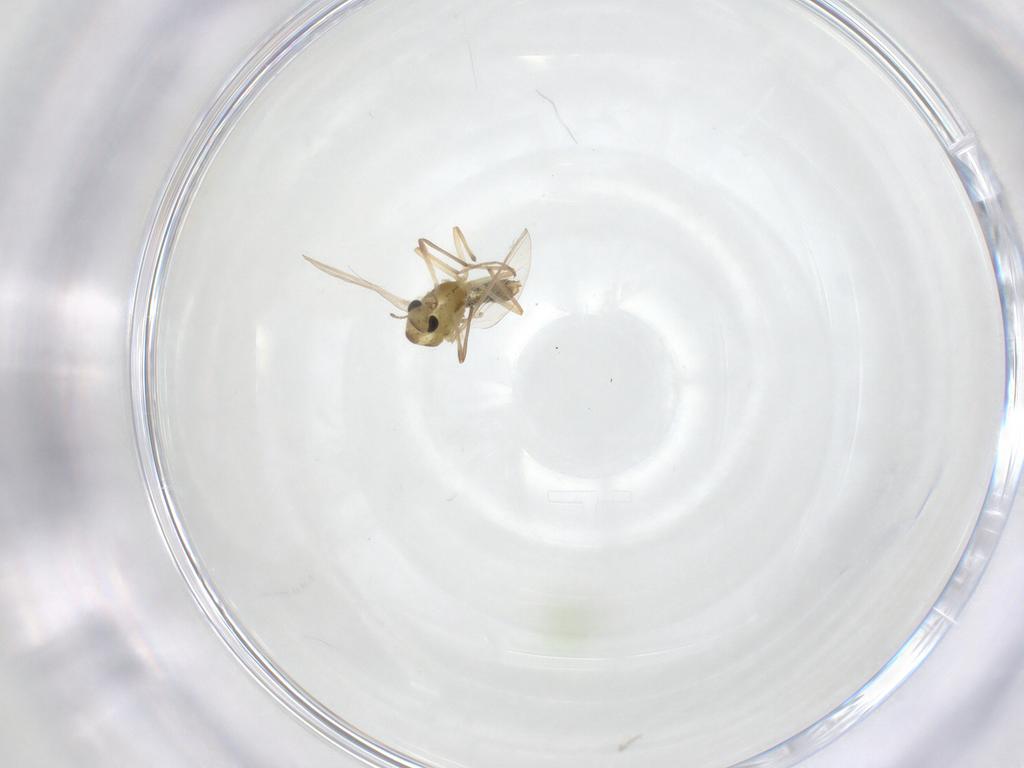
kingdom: Animalia
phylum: Arthropoda
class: Insecta
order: Diptera
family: Chironomidae
